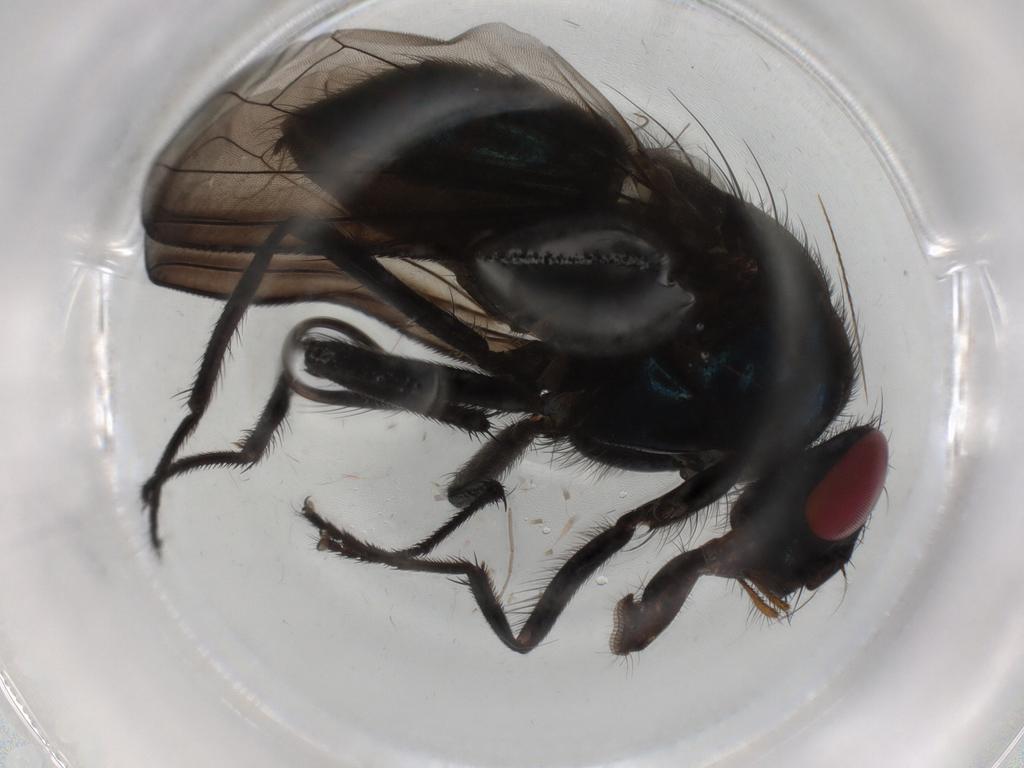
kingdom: Animalia
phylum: Arthropoda
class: Insecta
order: Diptera
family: Muscidae
